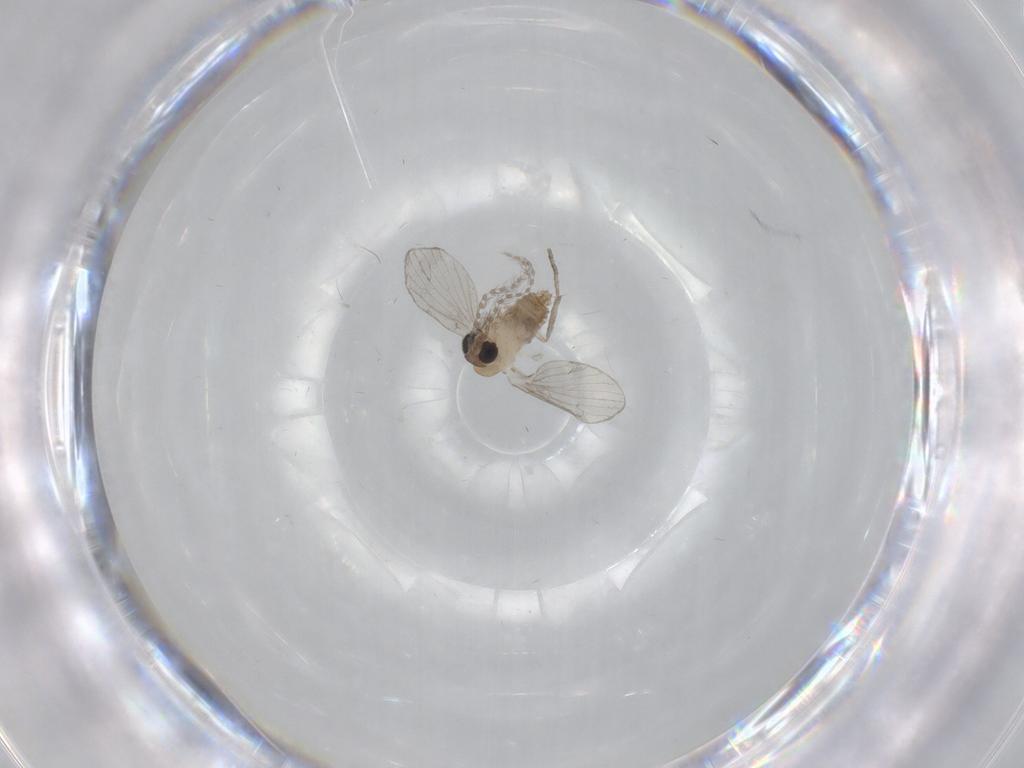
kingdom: Animalia
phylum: Arthropoda
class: Insecta
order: Diptera
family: Psychodidae
